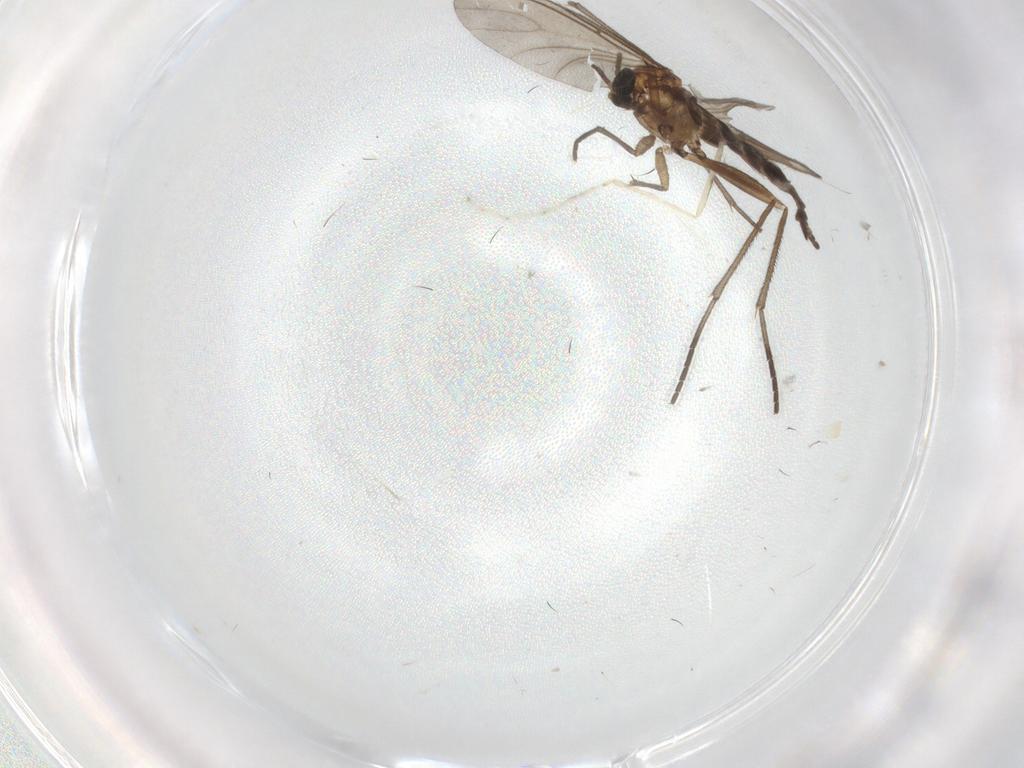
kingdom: Animalia
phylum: Arthropoda
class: Insecta
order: Diptera
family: Sciaridae
